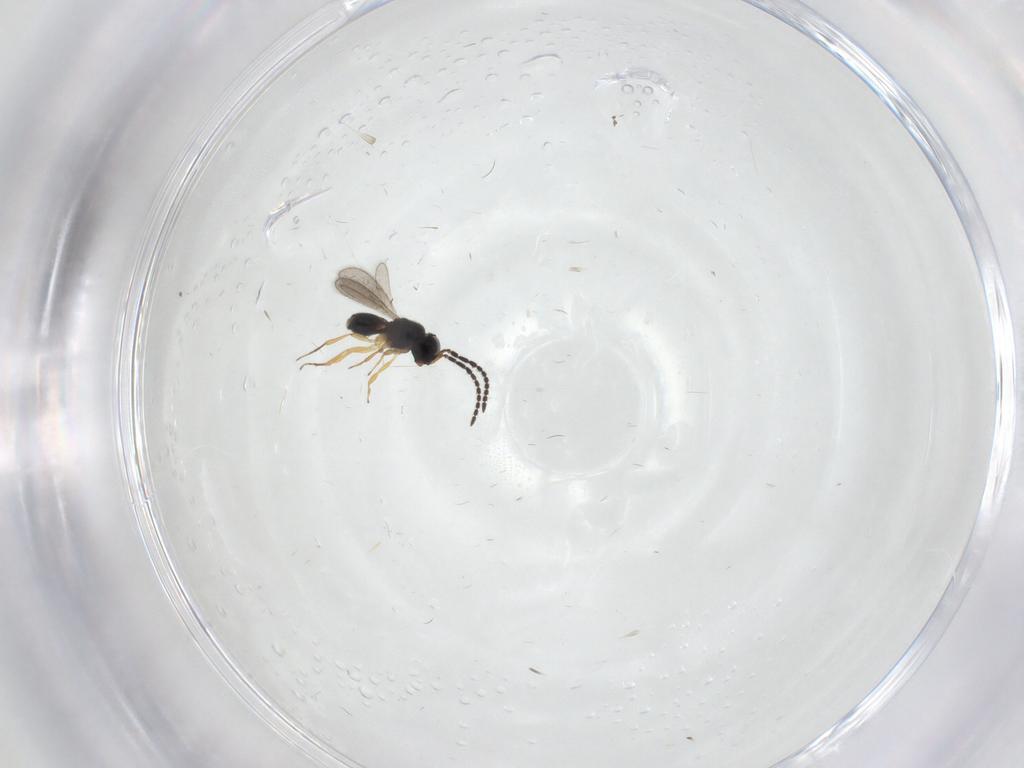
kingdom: Animalia
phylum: Arthropoda
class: Insecta
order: Hymenoptera
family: Scelionidae
